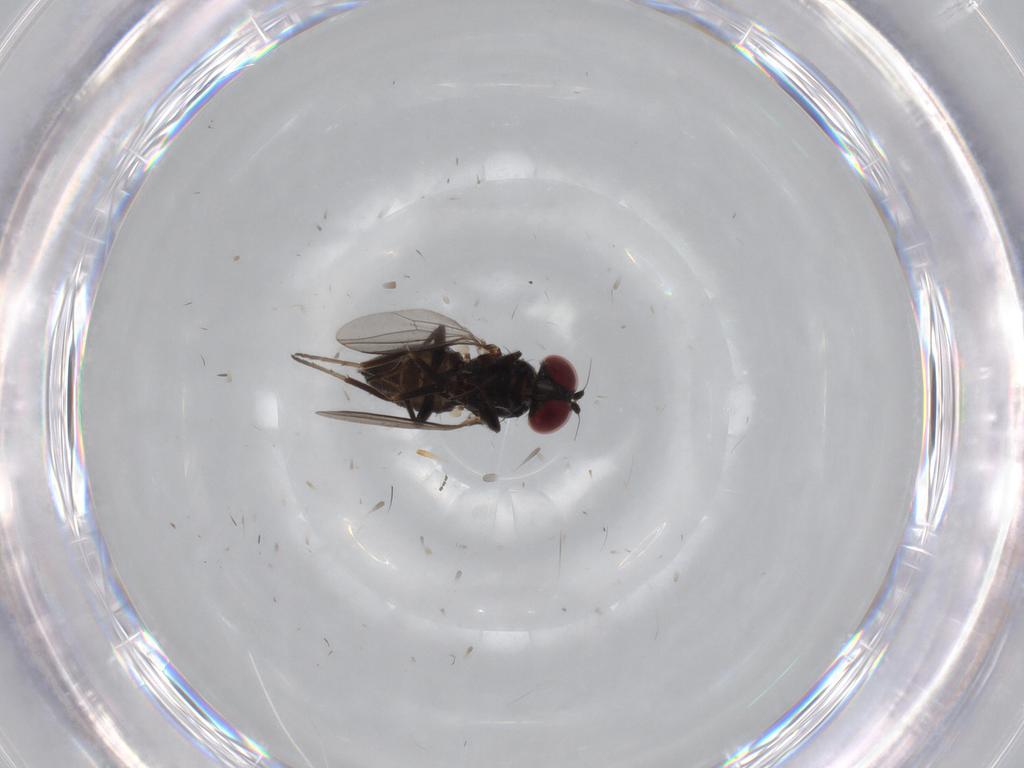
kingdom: Animalia
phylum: Arthropoda
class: Insecta
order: Diptera
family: Dolichopodidae
